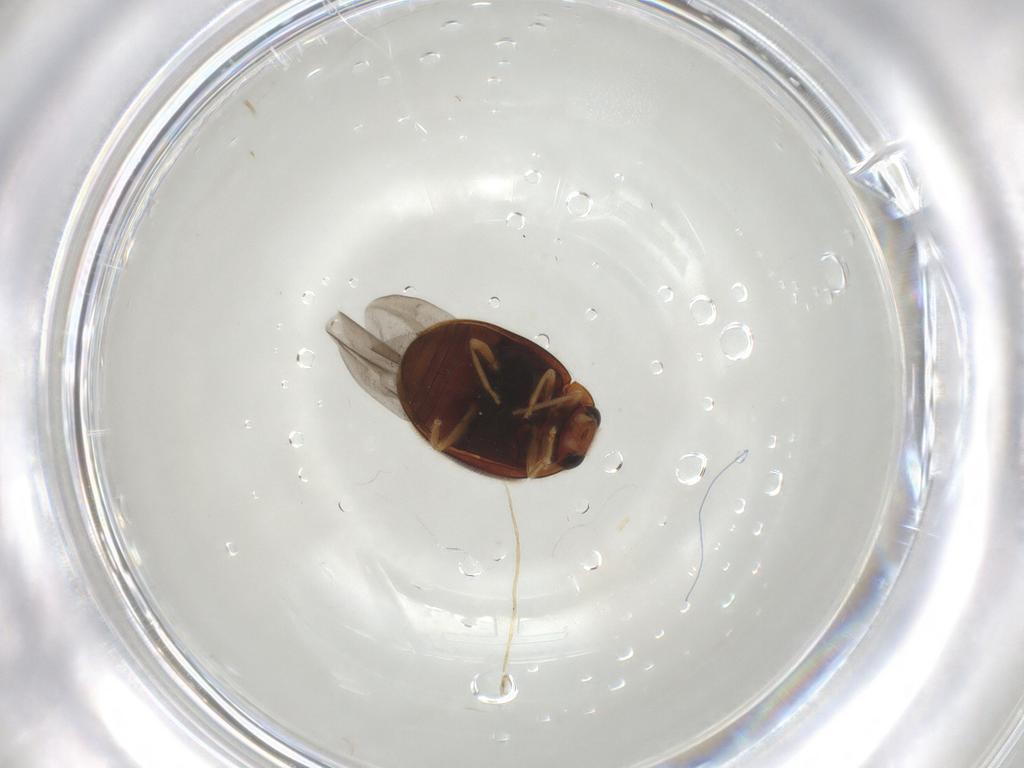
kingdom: Animalia
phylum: Arthropoda
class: Insecta
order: Coleoptera
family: Coccinellidae
